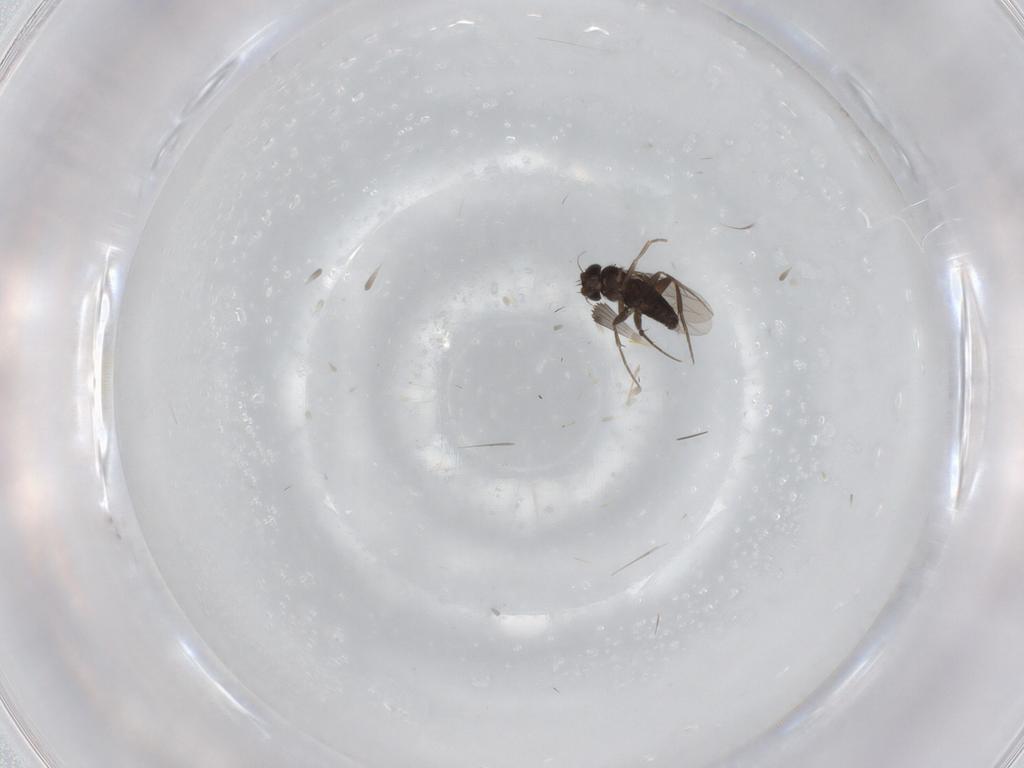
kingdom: Animalia
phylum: Arthropoda
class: Insecta
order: Diptera
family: Phoridae
